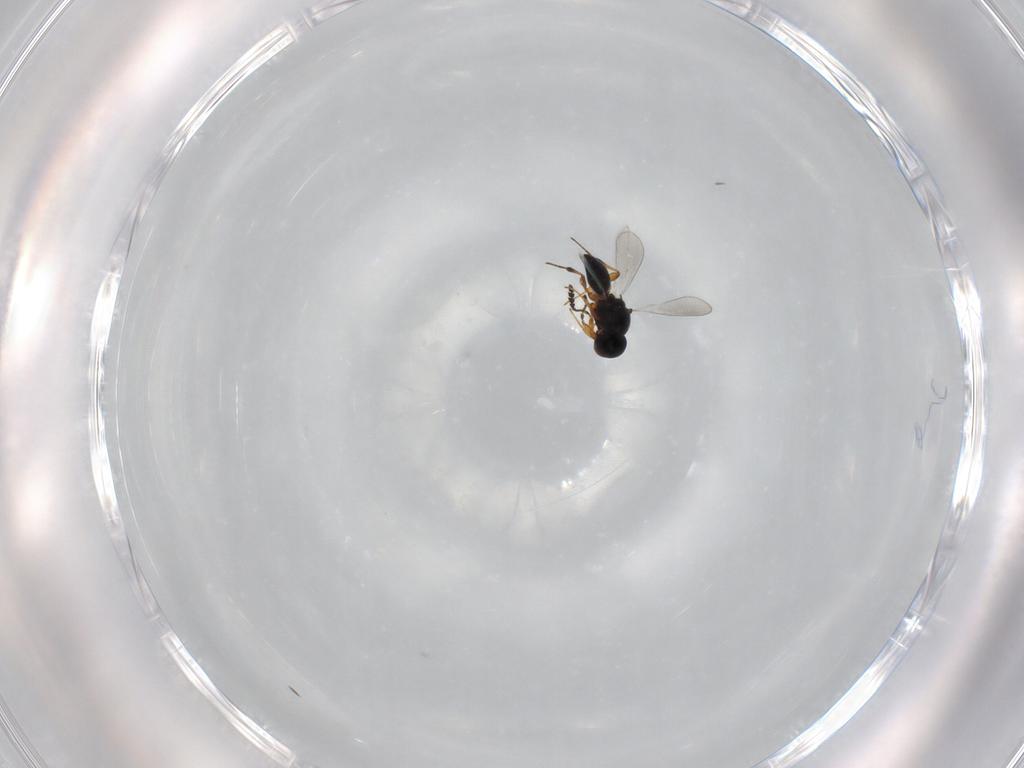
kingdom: Animalia
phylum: Arthropoda
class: Insecta
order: Hymenoptera
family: Platygastridae
